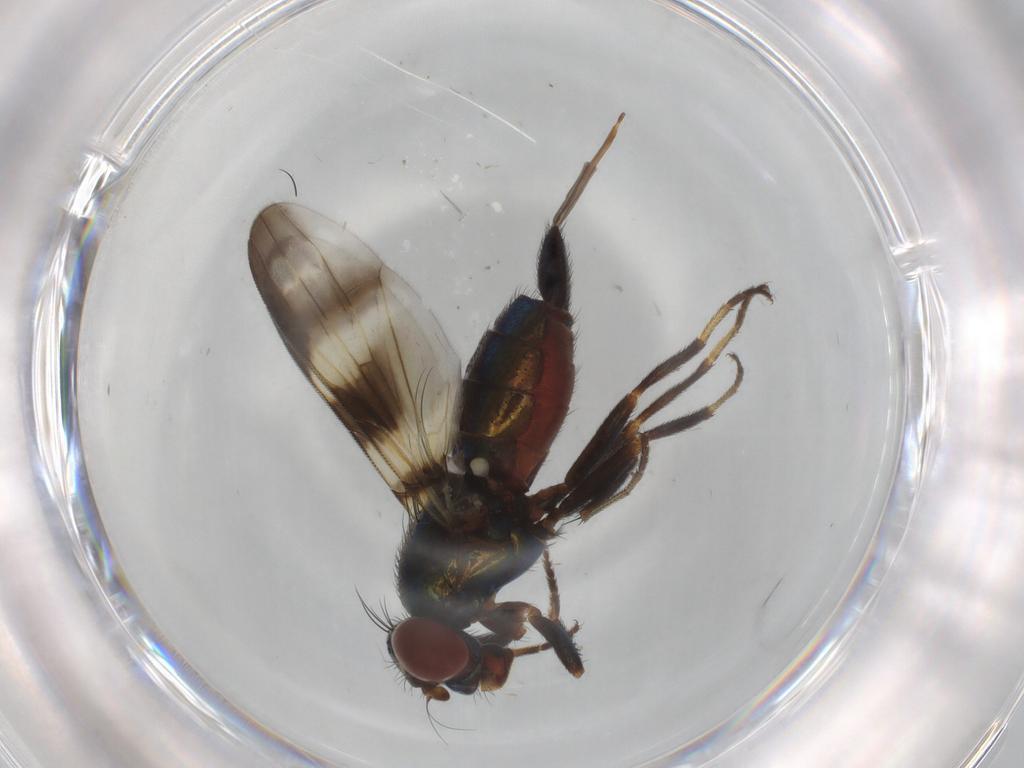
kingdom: Animalia
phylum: Arthropoda
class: Insecta
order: Diptera
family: Ulidiidae
